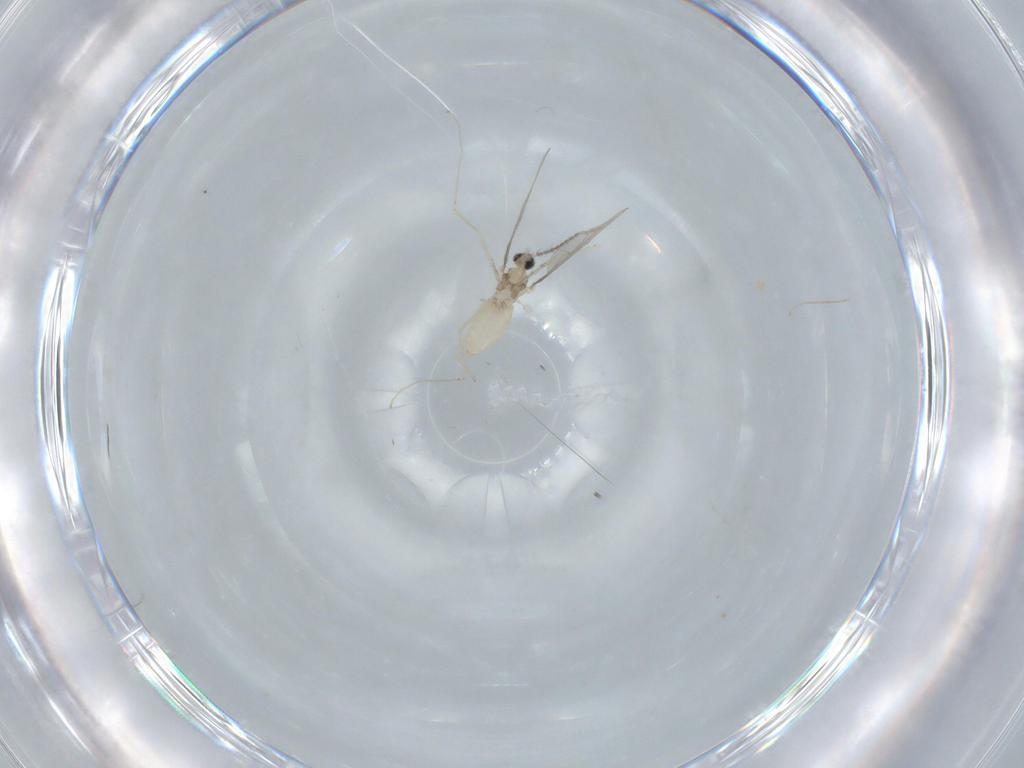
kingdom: Animalia
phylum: Arthropoda
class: Insecta
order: Diptera
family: Cecidomyiidae
